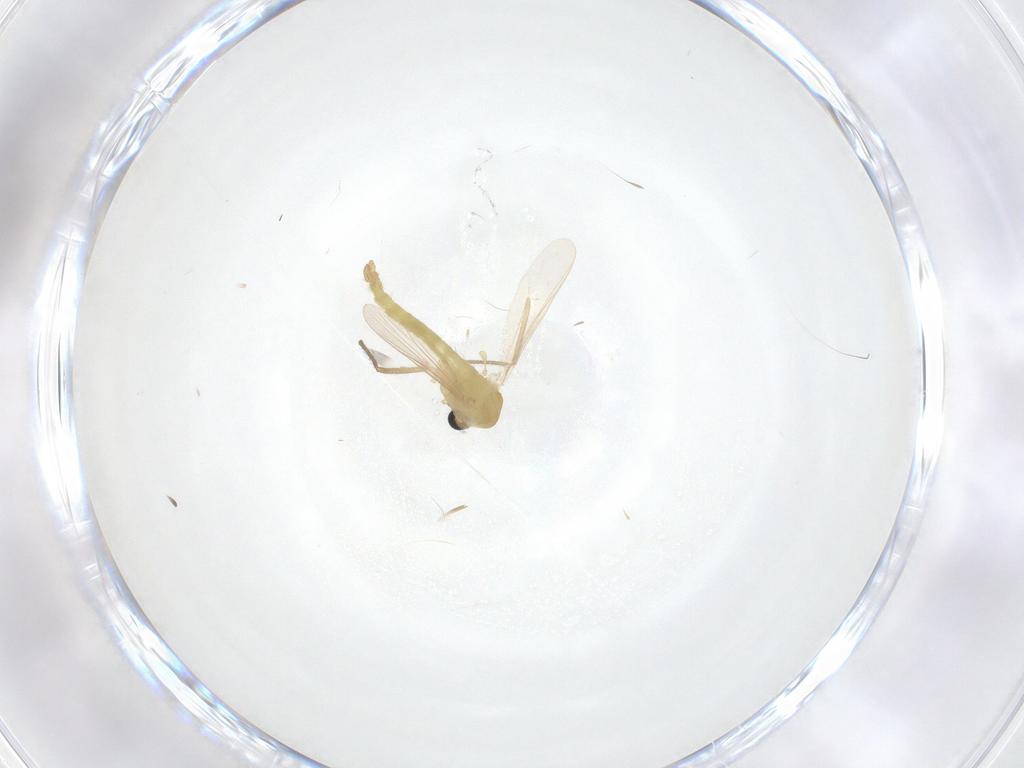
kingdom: Animalia
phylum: Arthropoda
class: Insecta
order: Diptera
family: Chironomidae
